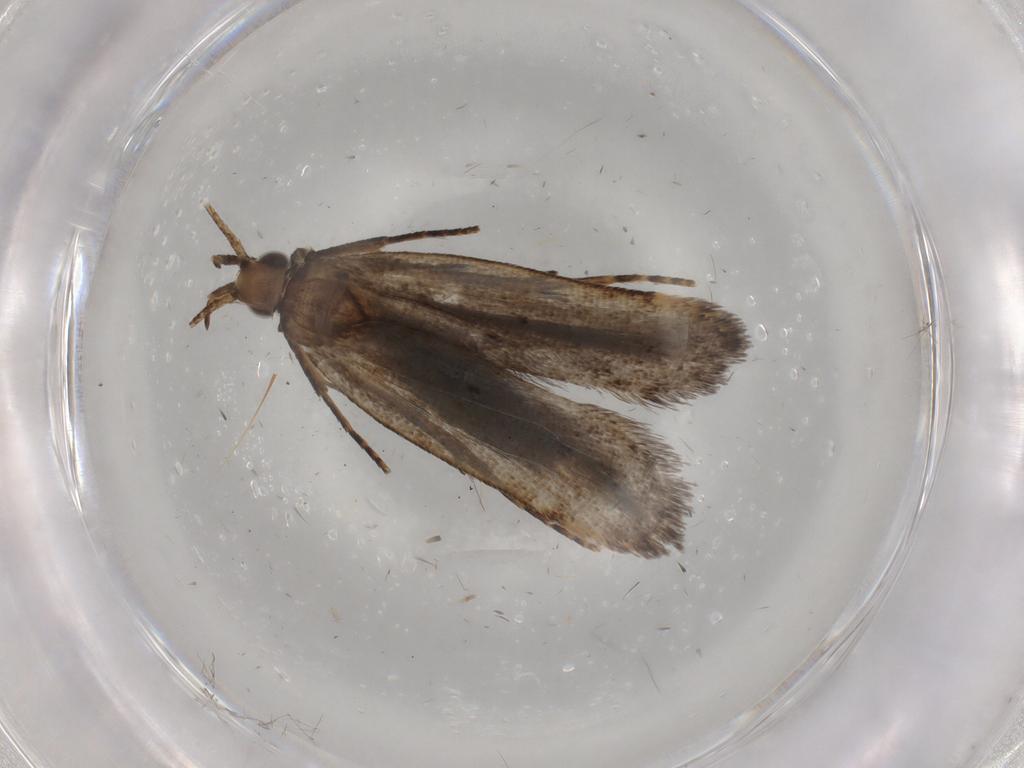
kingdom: Animalia
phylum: Arthropoda
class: Insecta
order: Lepidoptera
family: Gelechiidae
